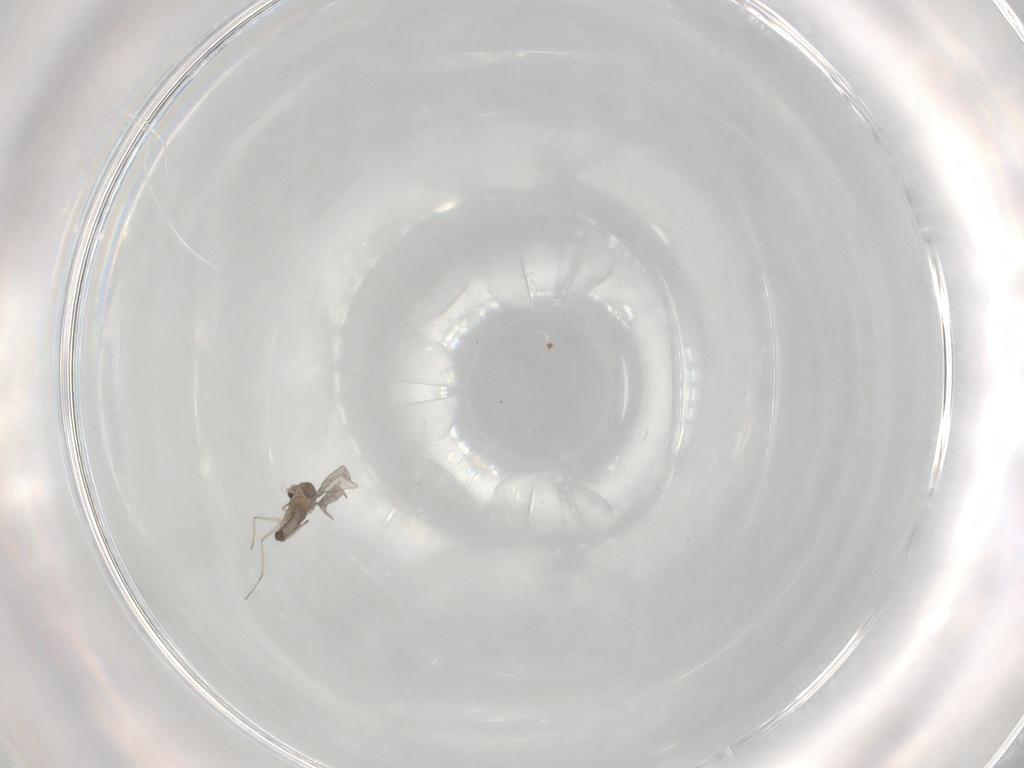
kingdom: Animalia
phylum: Arthropoda
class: Insecta
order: Diptera
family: Cecidomyiidae
